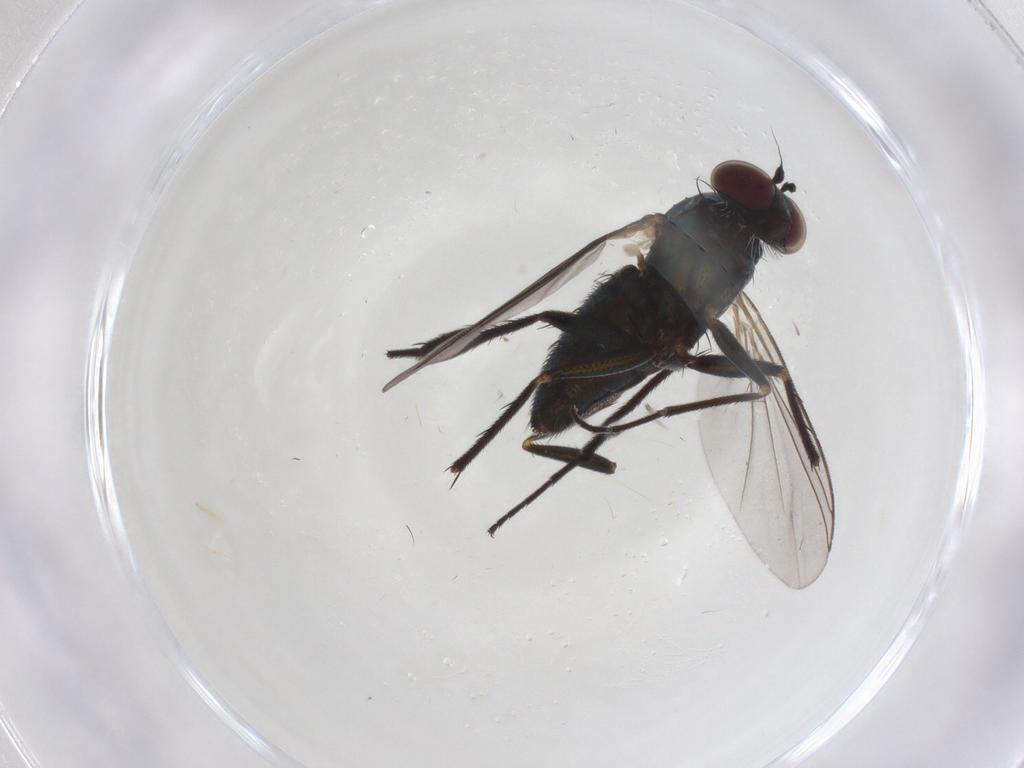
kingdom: Animalia
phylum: Arthropoda
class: Insecta
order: Diptera
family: Dolichopodidae
